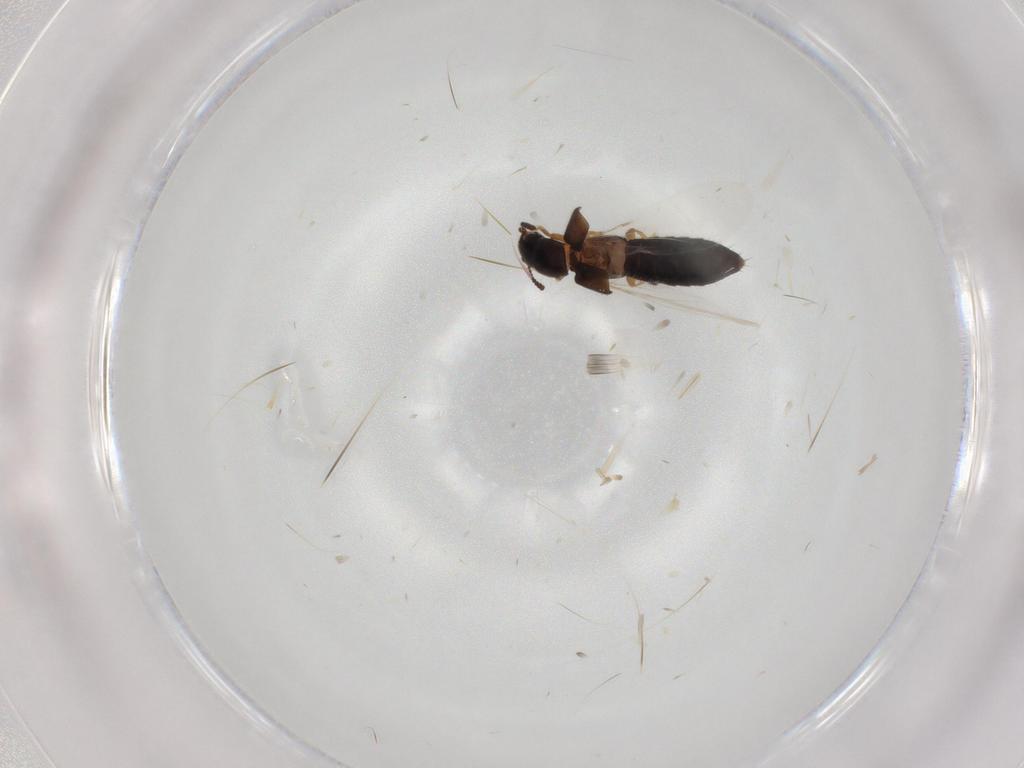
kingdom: Animalia
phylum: Arthropoda
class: Insecta
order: Coleoptera
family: Staphylinidae
